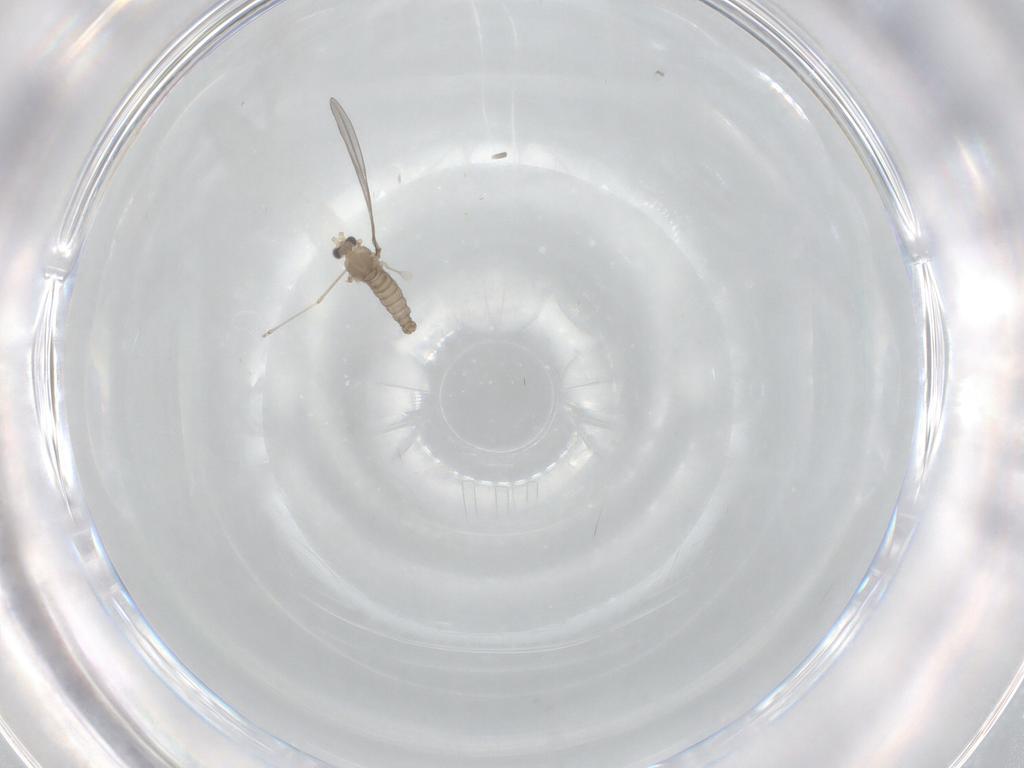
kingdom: Animalia
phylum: Arthropoda
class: Insecta
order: Diptera
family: Cecidomyiidae
